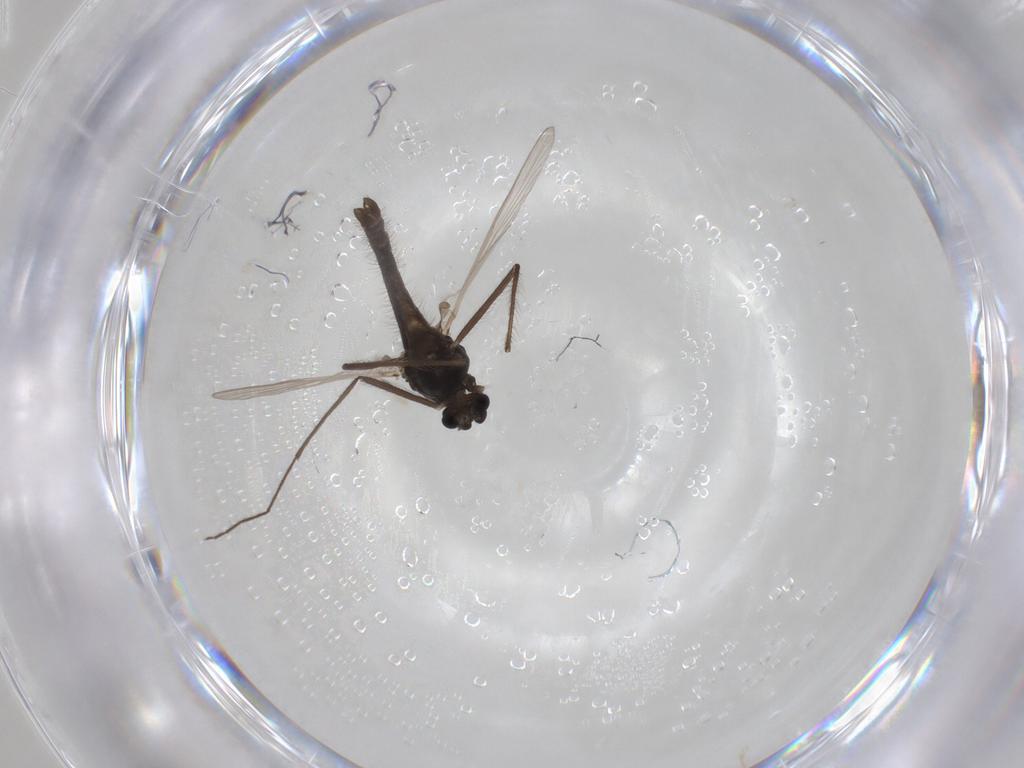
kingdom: Animalia
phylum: Arthropoda
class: Insecta
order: Diptera
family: Chironomidae
